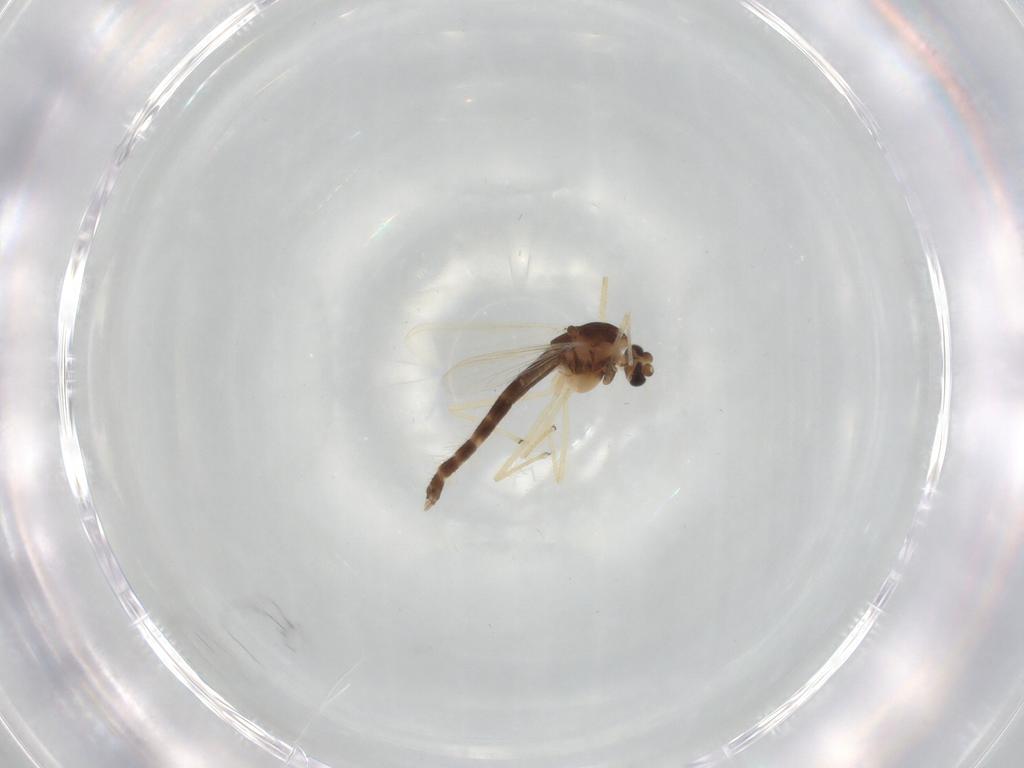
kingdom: Animalia
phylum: Arthropoda
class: Insecta
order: Diptera
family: Chironomidae
